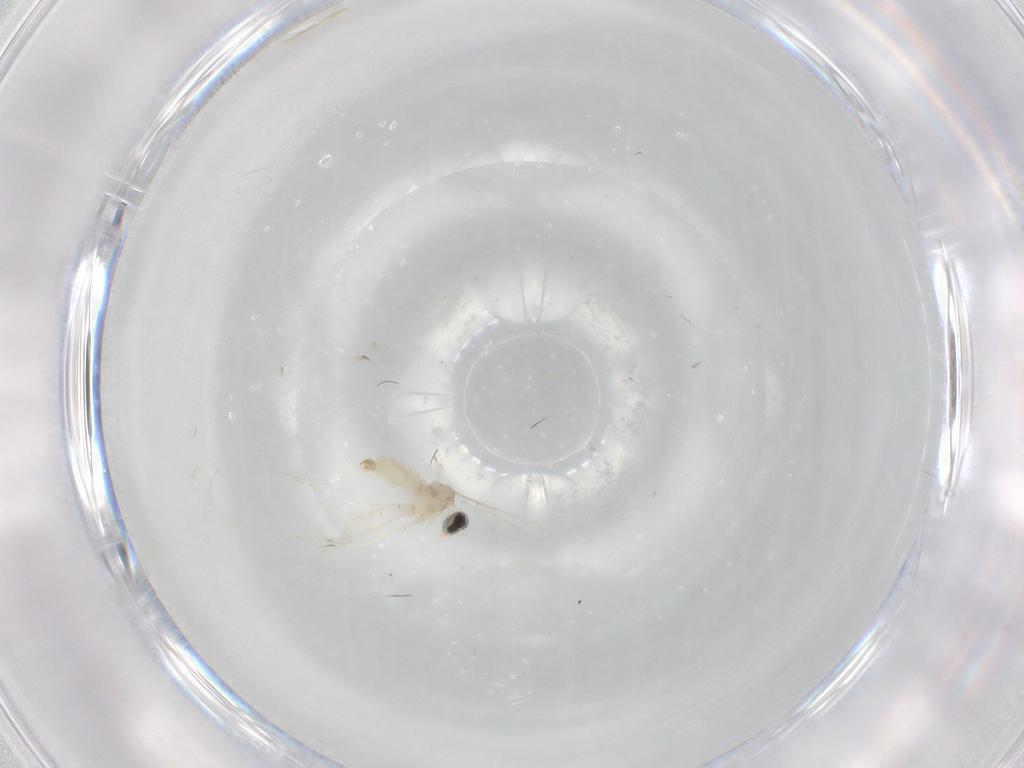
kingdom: Animalia
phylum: Arthropoda
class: Insecta
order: Diptera
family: Cecidomyiidae
